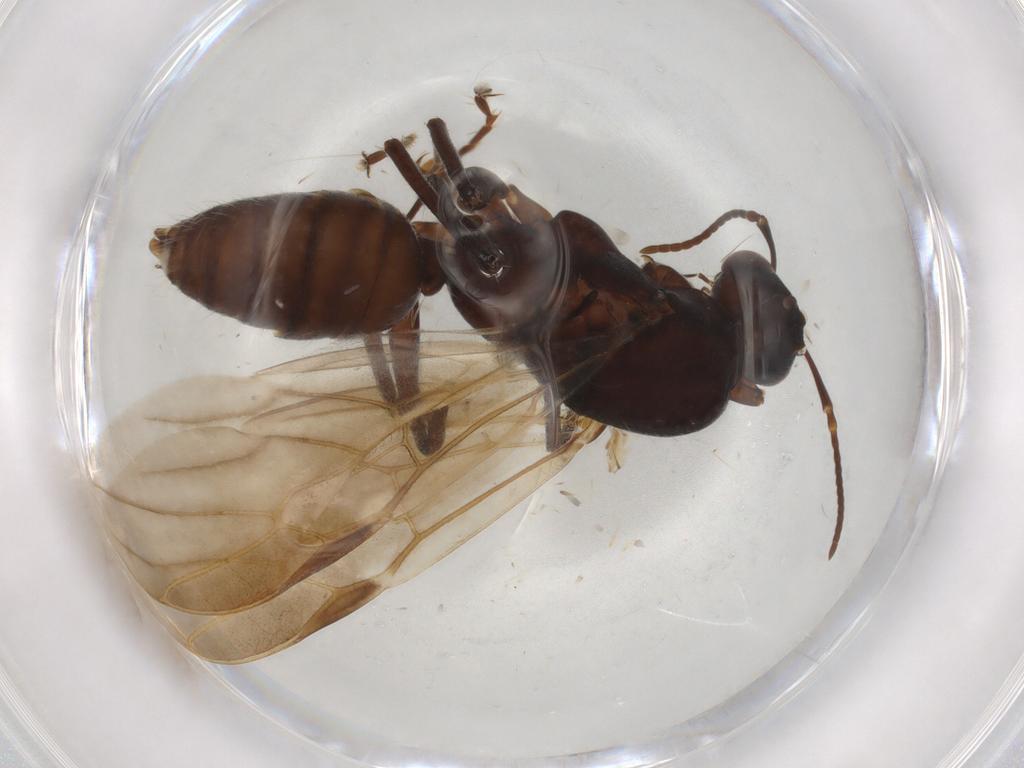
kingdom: Animalia
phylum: Arthropoda
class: Insecta
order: Hymenoptera
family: Formicidae
